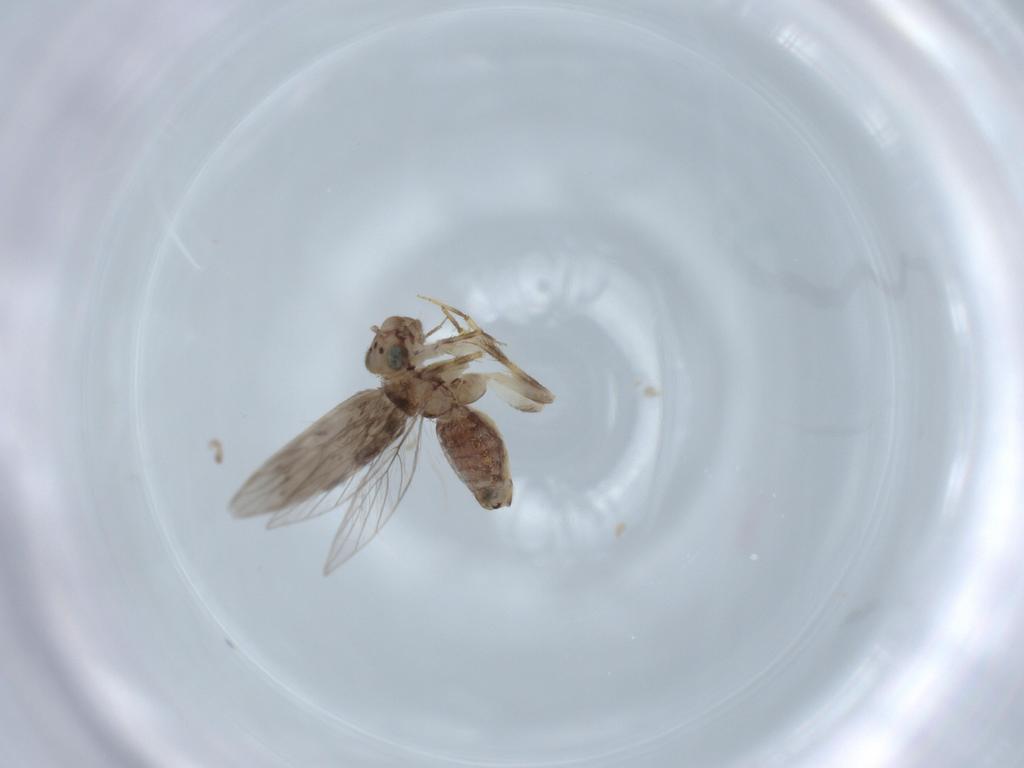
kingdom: Animalia
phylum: Arthropoda
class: Insecta
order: Psocodea
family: Lepidopsocidae
